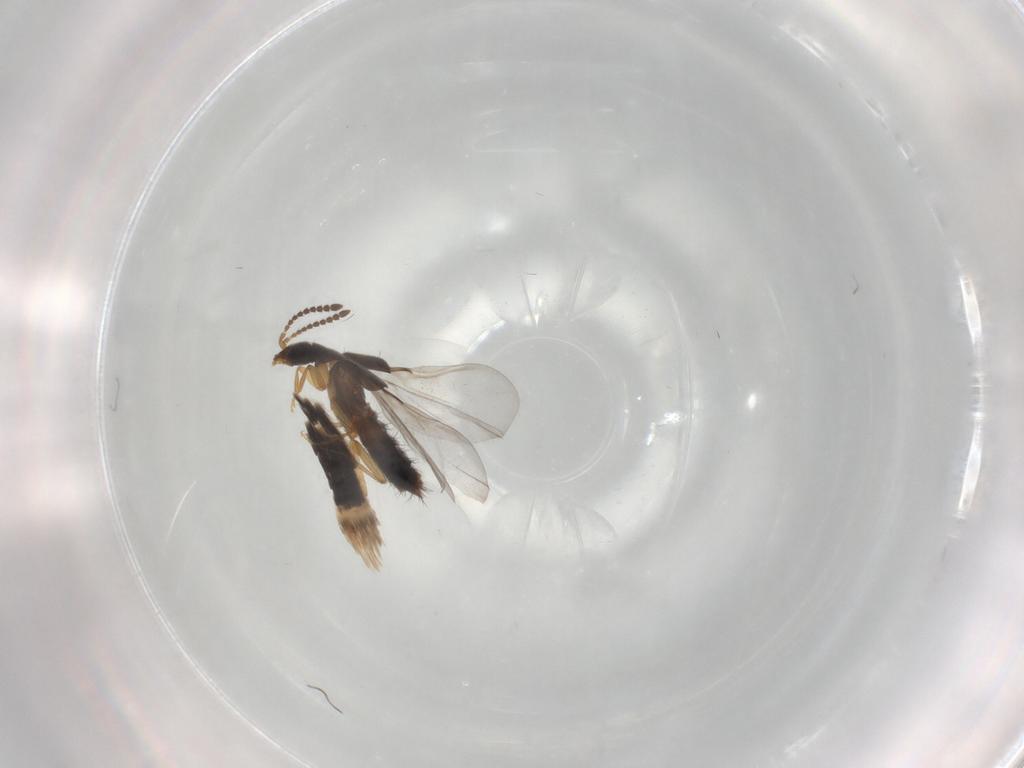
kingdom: Animalia
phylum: Arthropoda
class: Insecta
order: Coleoptera
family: Staphylinidae
